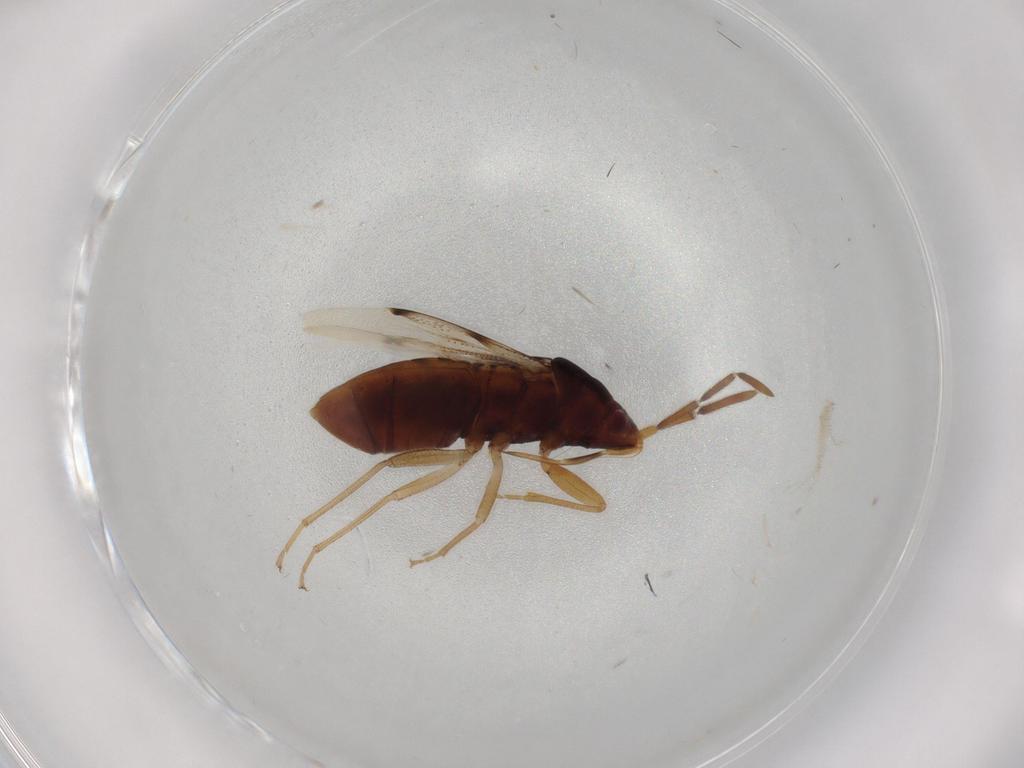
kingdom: Animalia
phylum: Arthropoda
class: Insecta
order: Hemiptera
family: Rhyparochromidae
